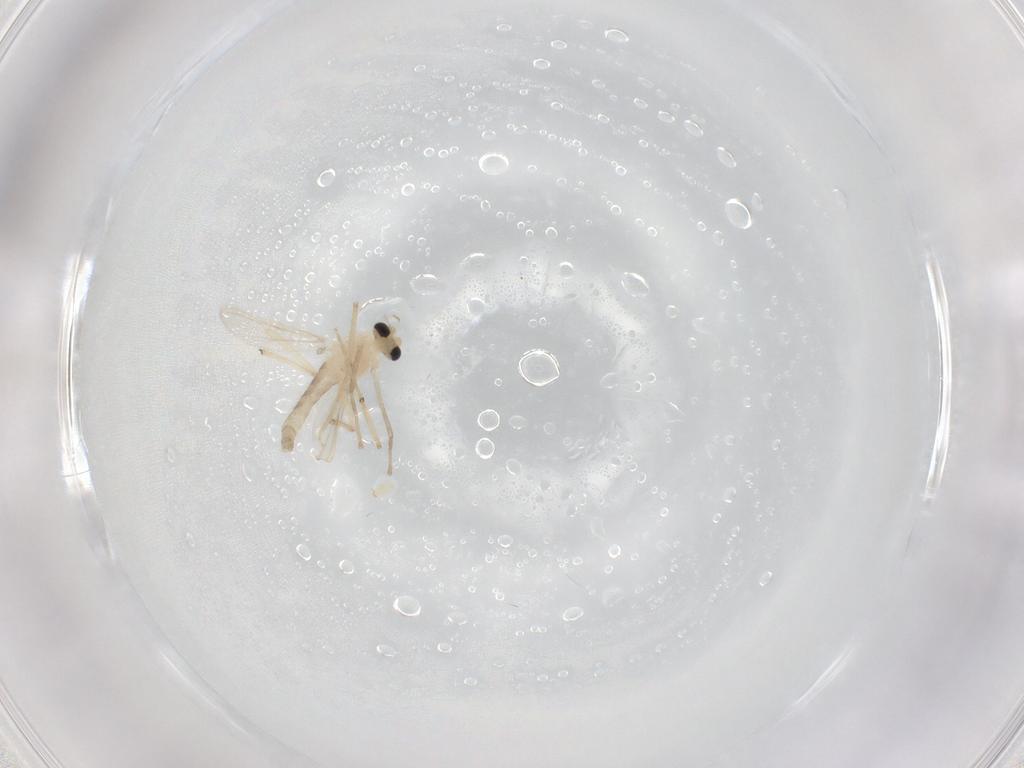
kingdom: Animalia
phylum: Arthropoda
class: Insecta
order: Diptera
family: Chironomidae
